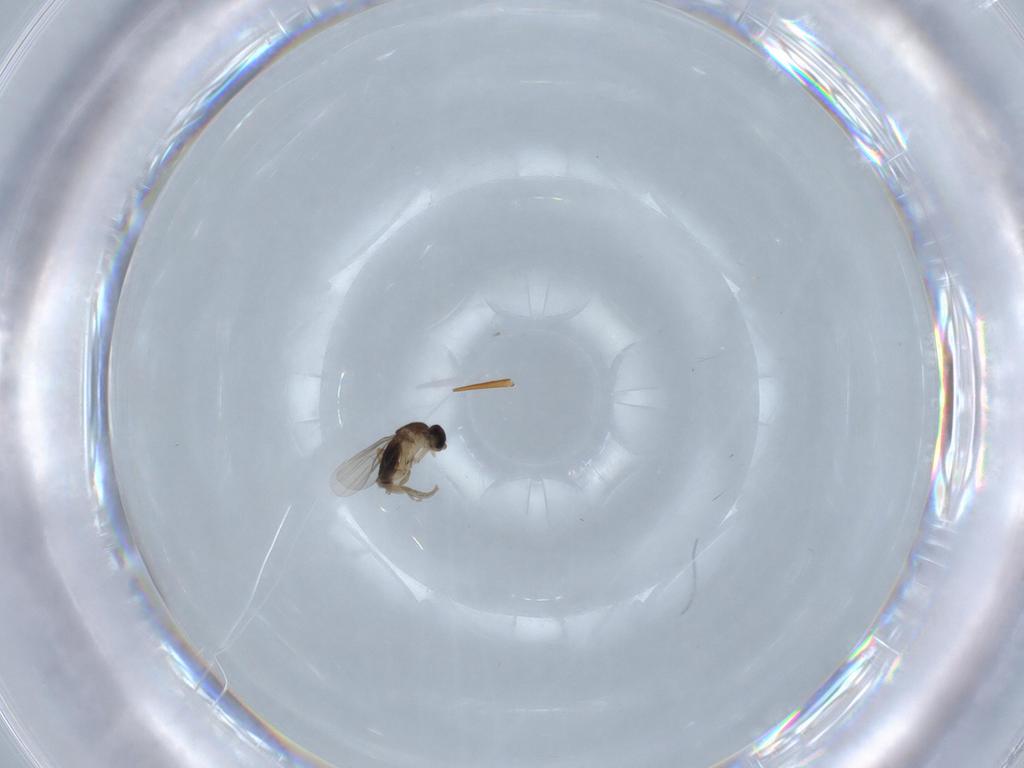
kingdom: Animalia
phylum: Arthropoda
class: Insecta
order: Diptera
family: Phoridae
